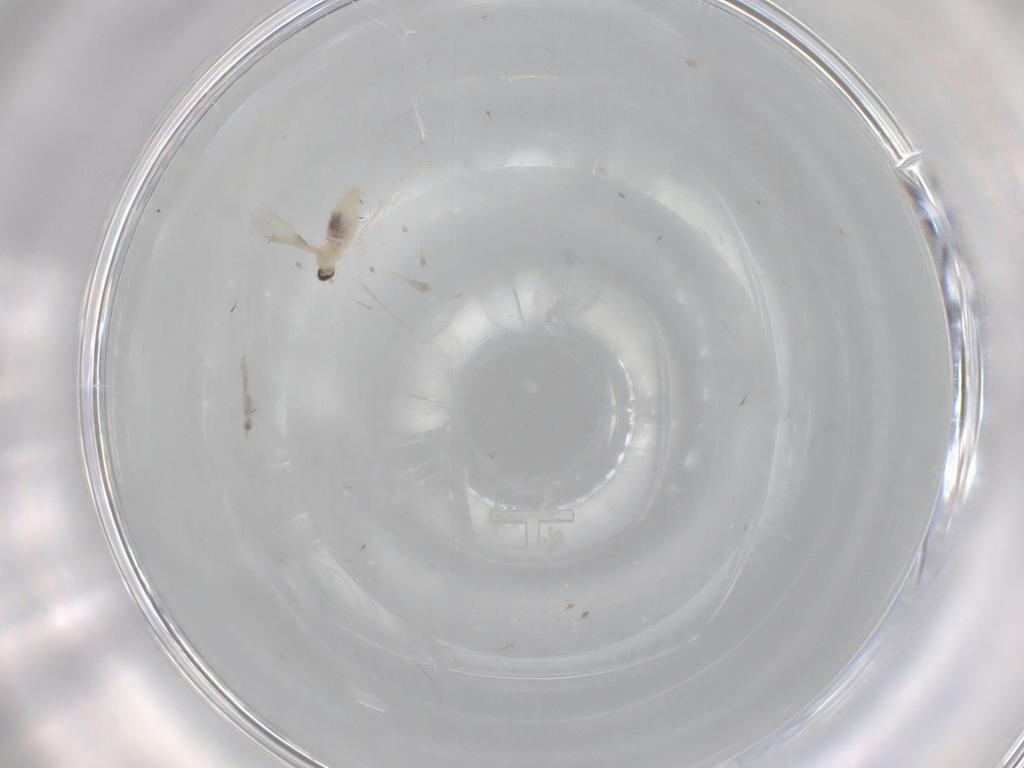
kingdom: Animalia
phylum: Arthropoda
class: Insecta
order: Diptera
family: Cecidomyiidae
